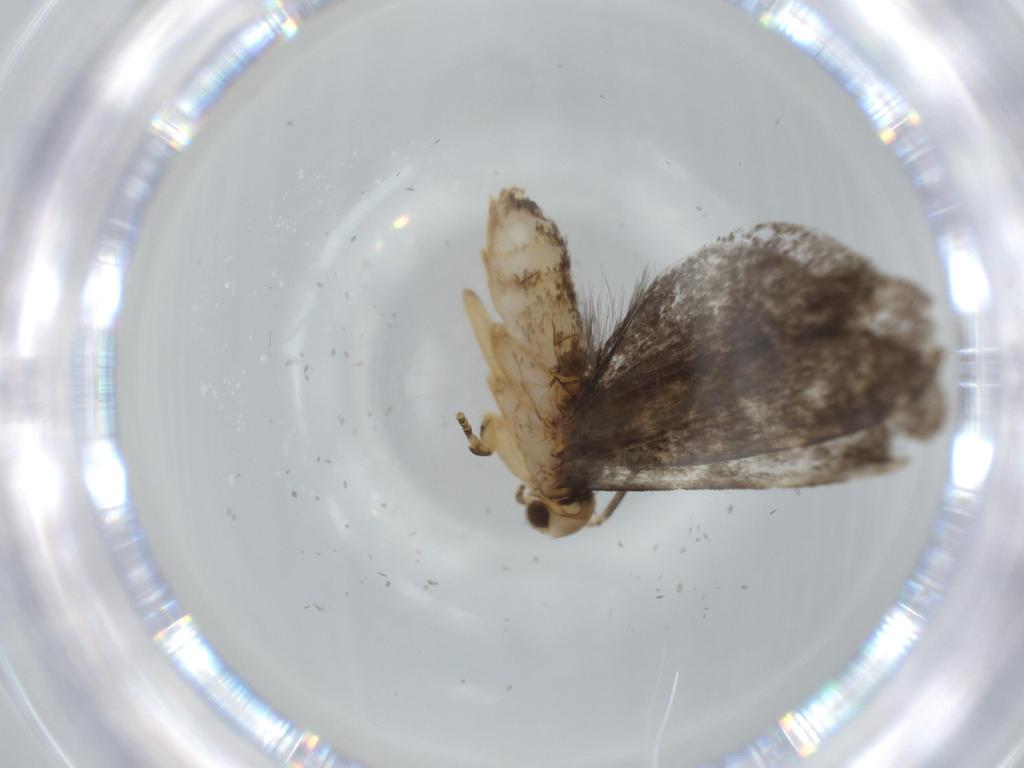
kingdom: Animalia
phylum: Arthropoda
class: Insecta
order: Lepidoptera
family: Dryadaulidae
